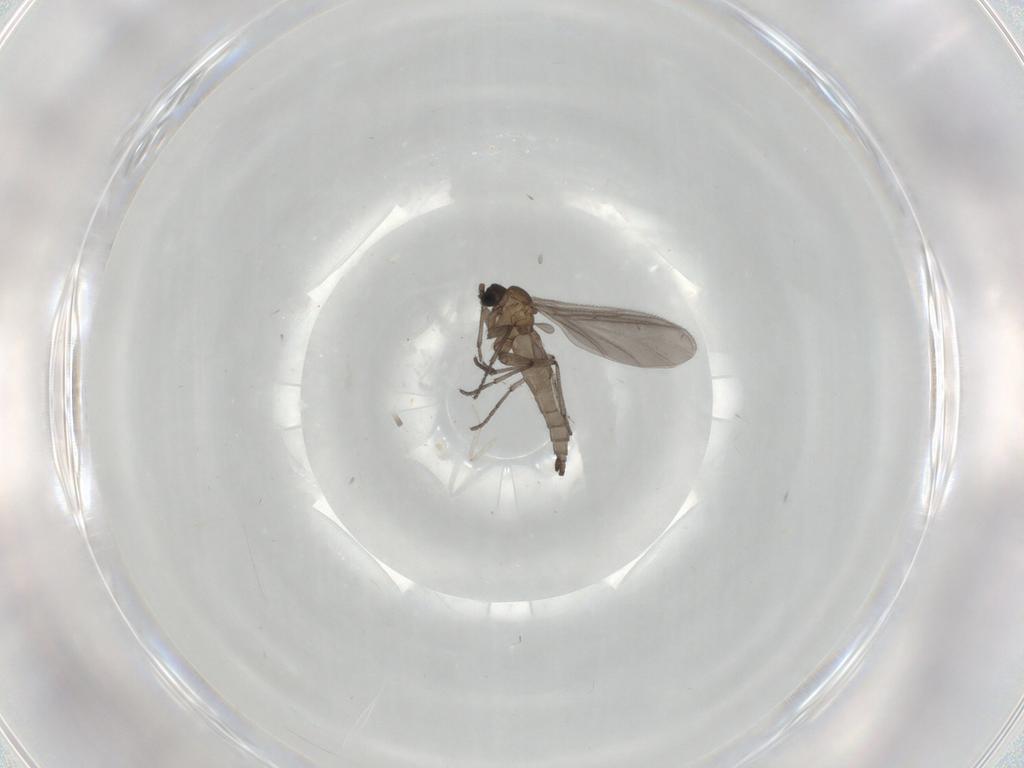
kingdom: Animalia
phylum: Arthropoda
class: Insecta
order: Diptera
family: Sciaridae
